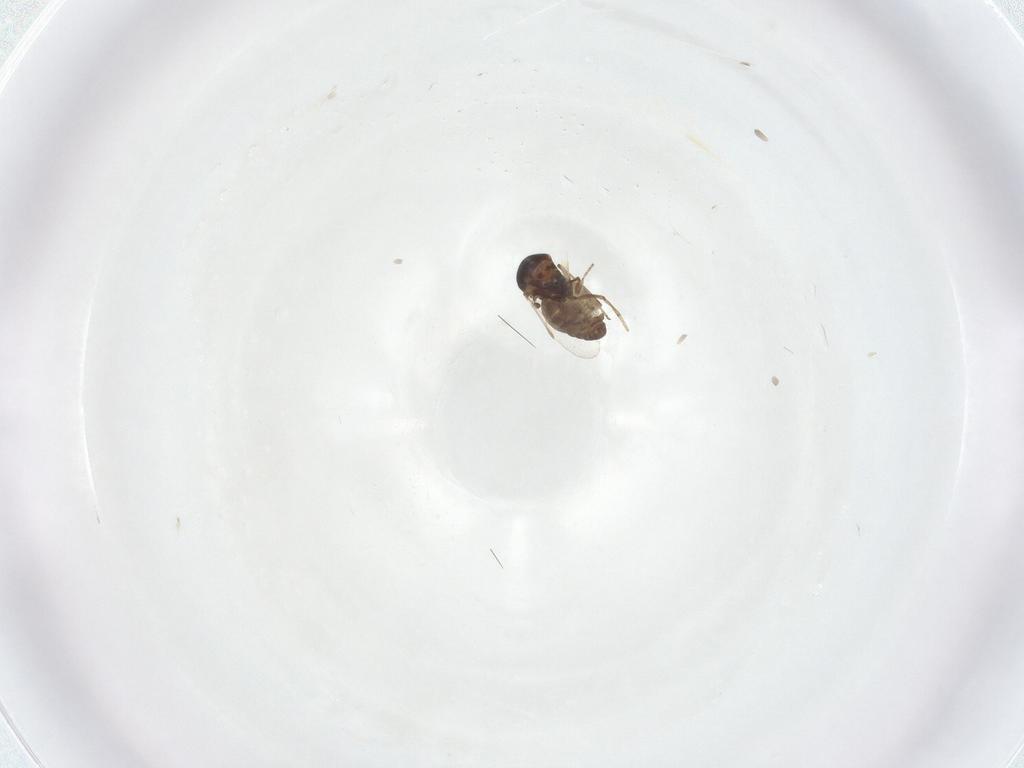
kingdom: Animalia
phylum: Arthropoda
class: Insecta
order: Diptera
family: Ceratopogonidae
